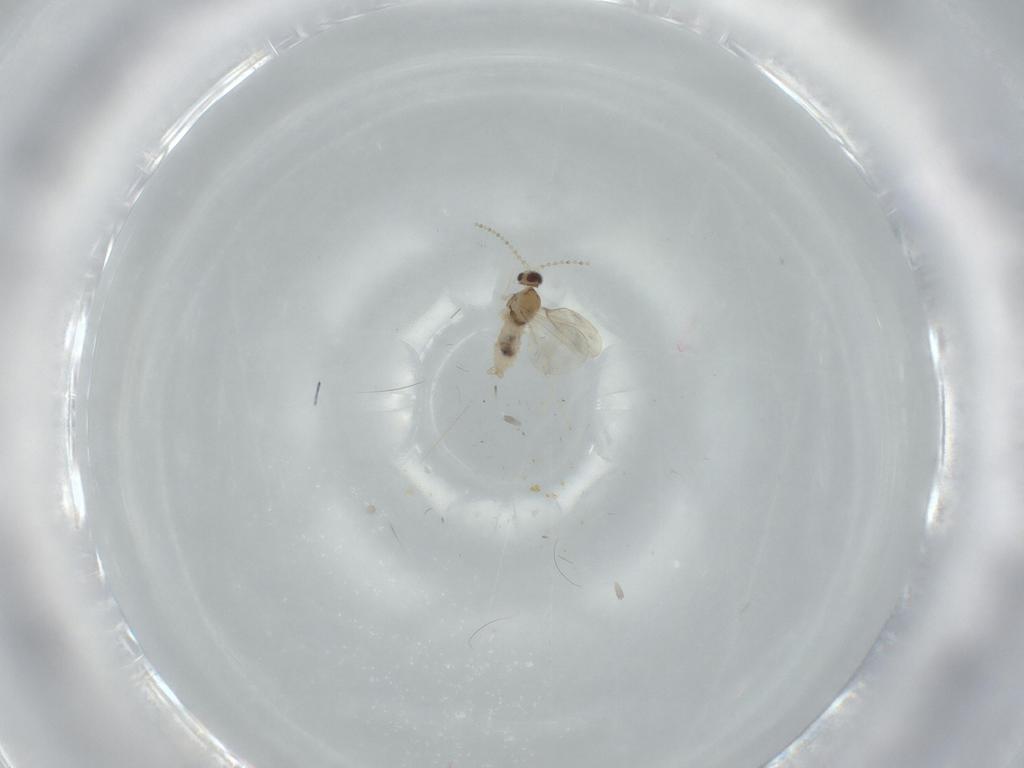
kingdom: Animalia
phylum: Arthropoda
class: Insecta
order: Diptera
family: Cecidomyiidae
